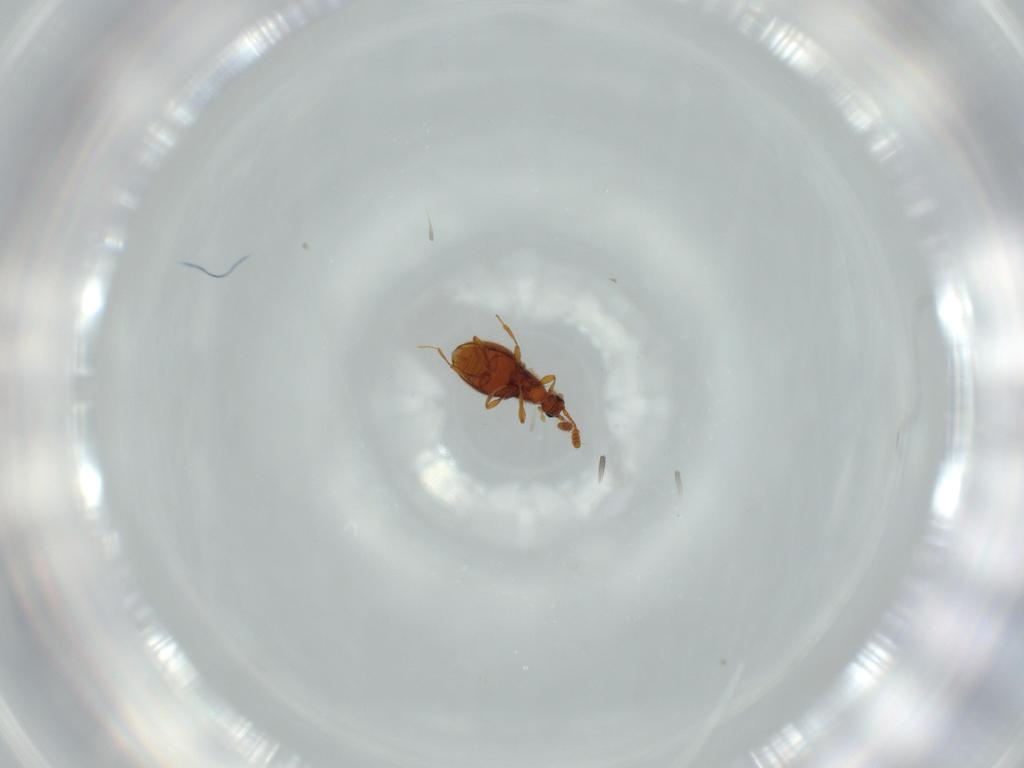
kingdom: Animalia
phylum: Arthropoda
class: Insecta
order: Coleoptera
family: Staphylinidae
